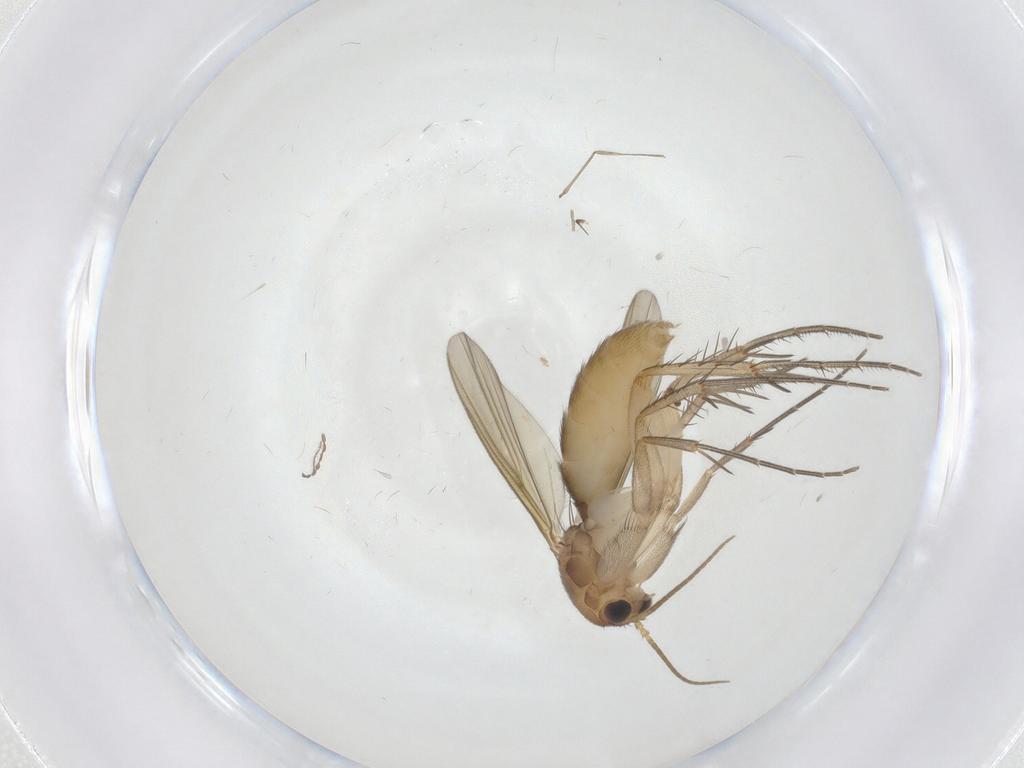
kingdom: Animalia
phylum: Arthropoda
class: Insecta
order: Diptera
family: Mycetophilidae
